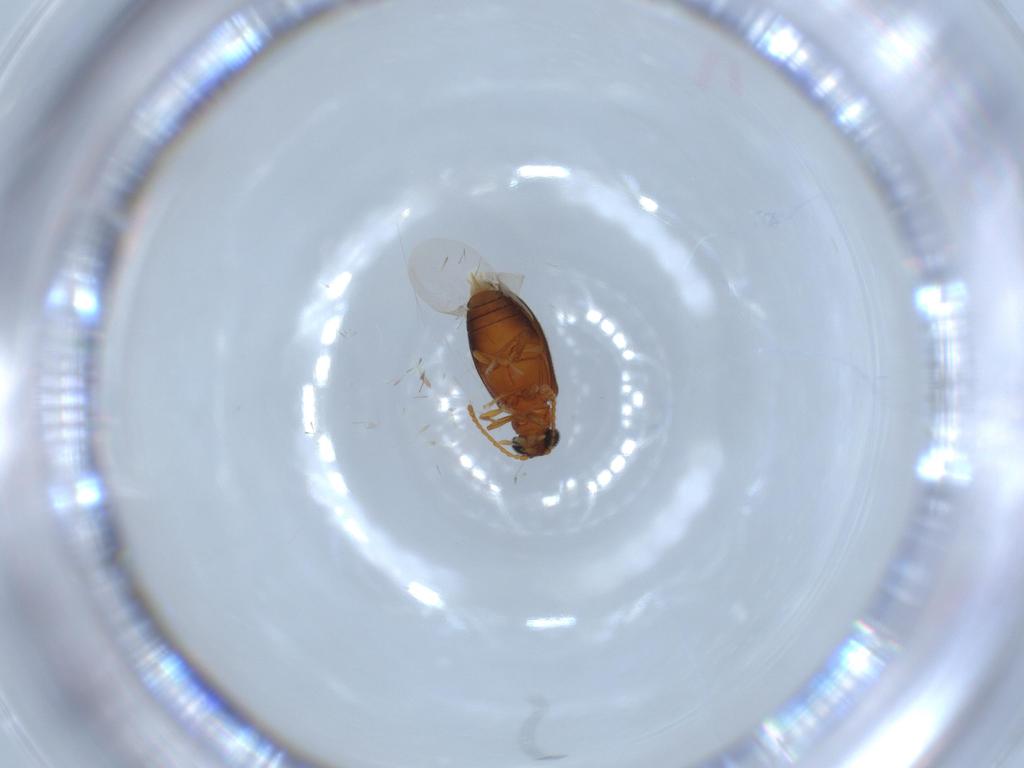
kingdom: Animalia
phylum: Arthropoda
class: Insecta
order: Coleoptera
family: Aderidae
